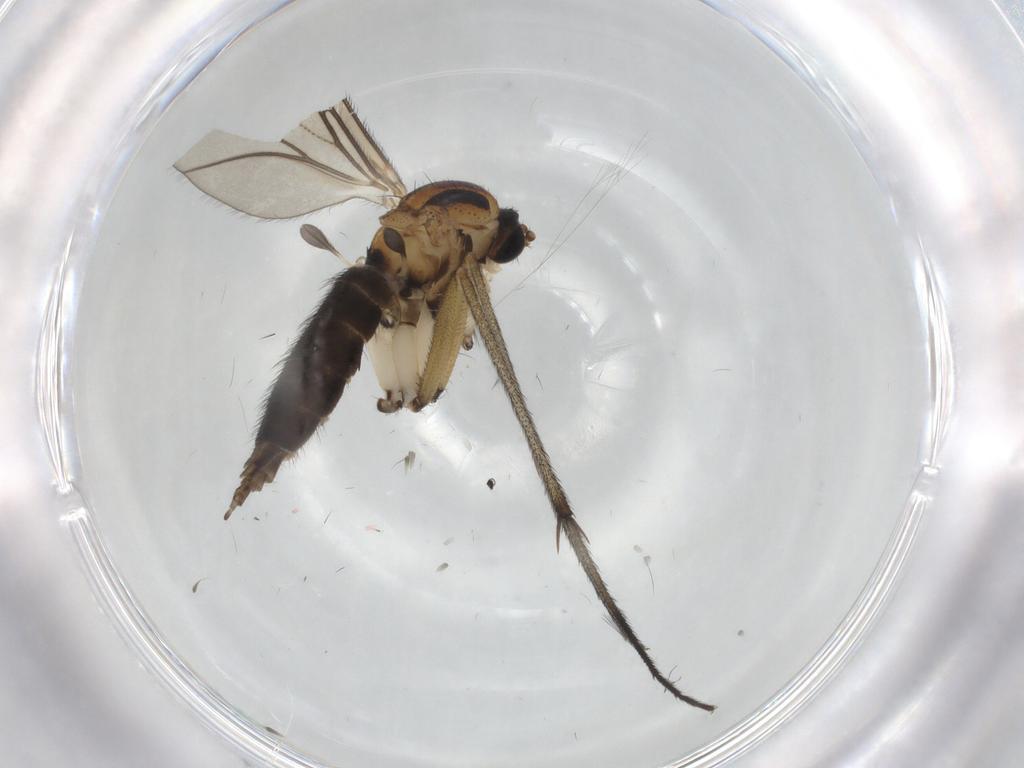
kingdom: Animalia
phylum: Arthropoda
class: Insecta
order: Diptera
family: Sciaridae
